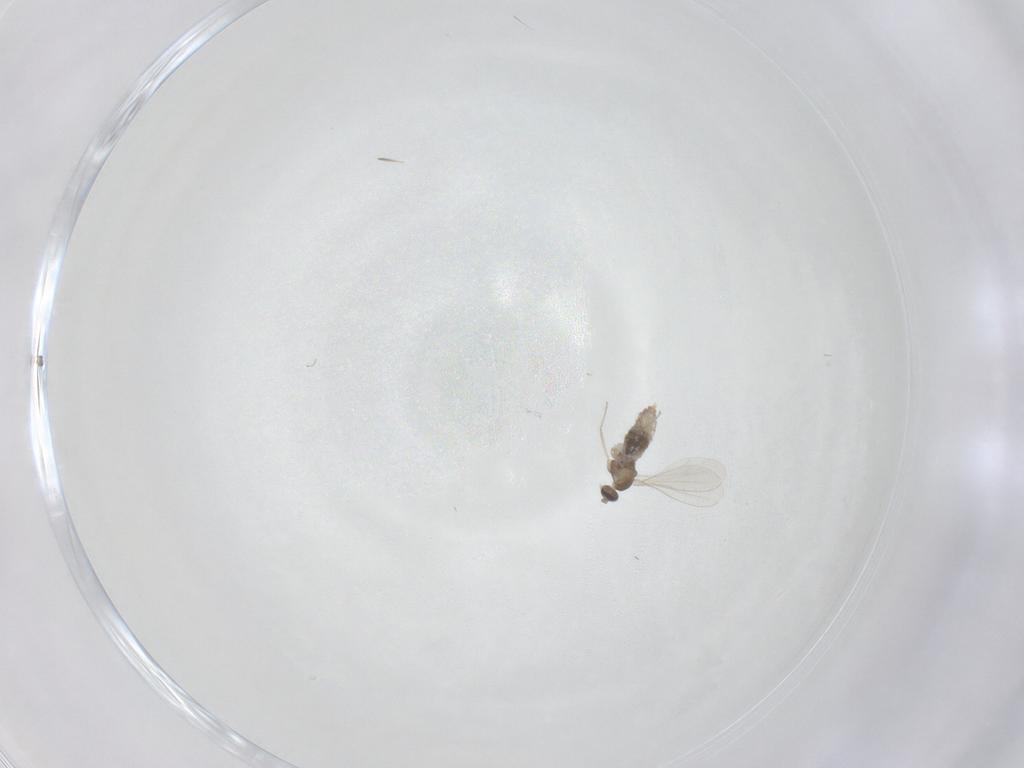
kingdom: Animalia
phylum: Arthropoda
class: Insecta
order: Diptera
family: Cecidomyiidae
